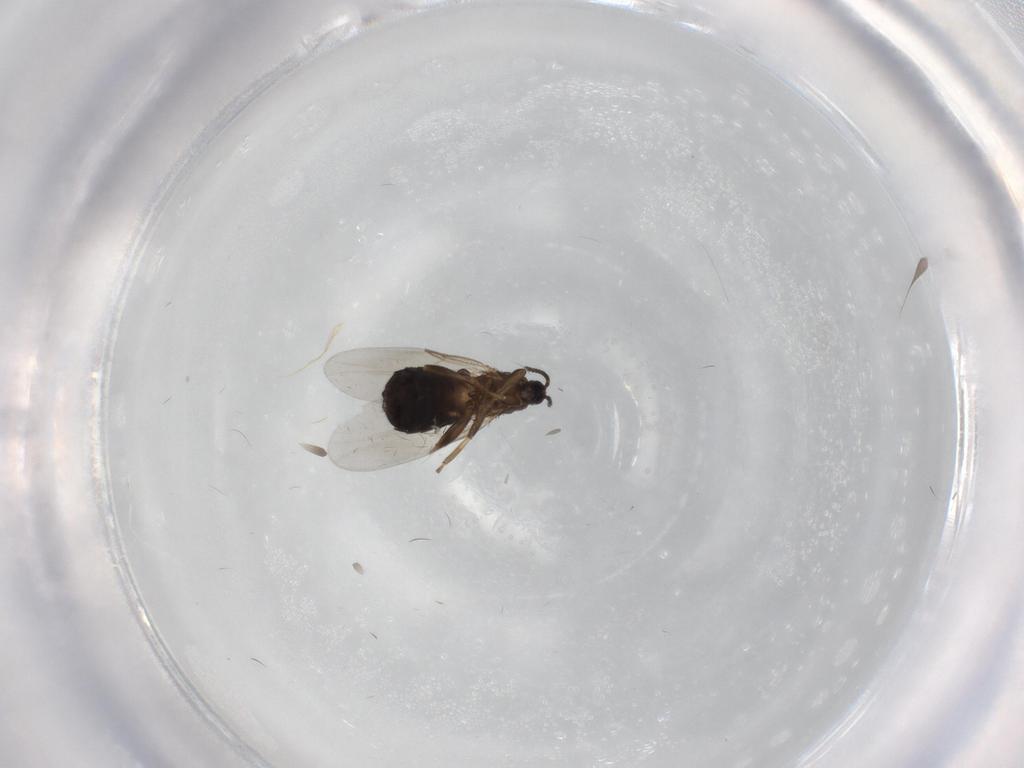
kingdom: Animalia
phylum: Arthropoda
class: Insecta
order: Diptera
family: Scatopsidae
